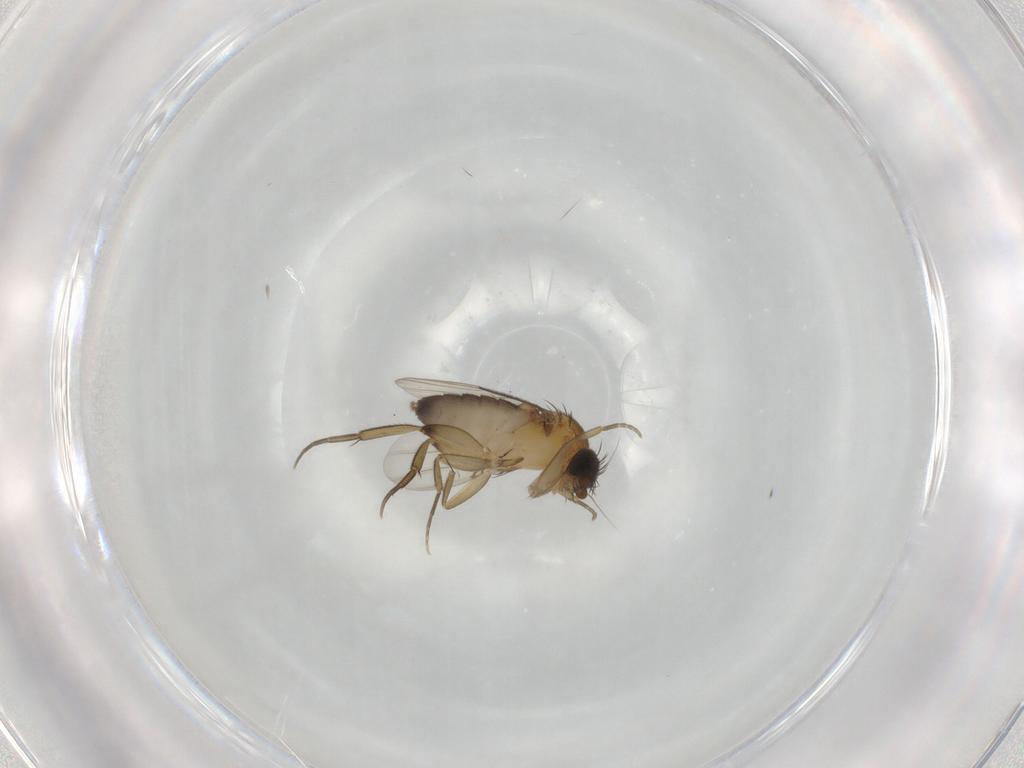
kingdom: Animalia
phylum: Arthropoda
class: Insecta
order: Diptera
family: Phoridae
